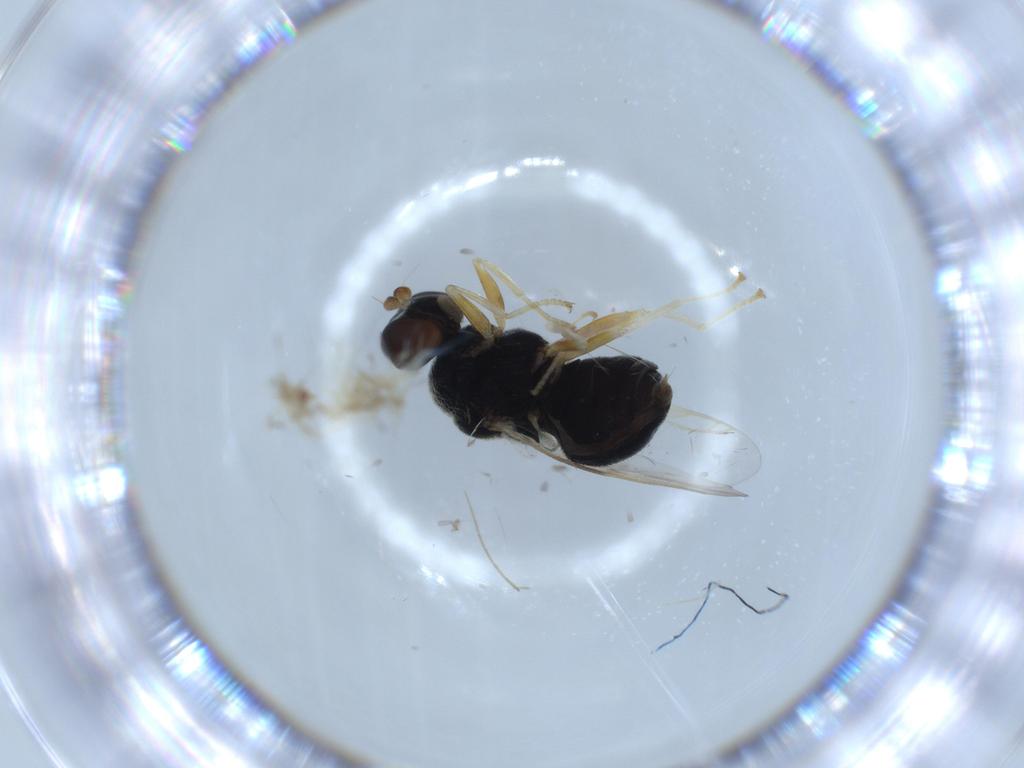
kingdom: Animalia
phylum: Arthropoda
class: Insecta
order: Diptera
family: Stratiomyidae
